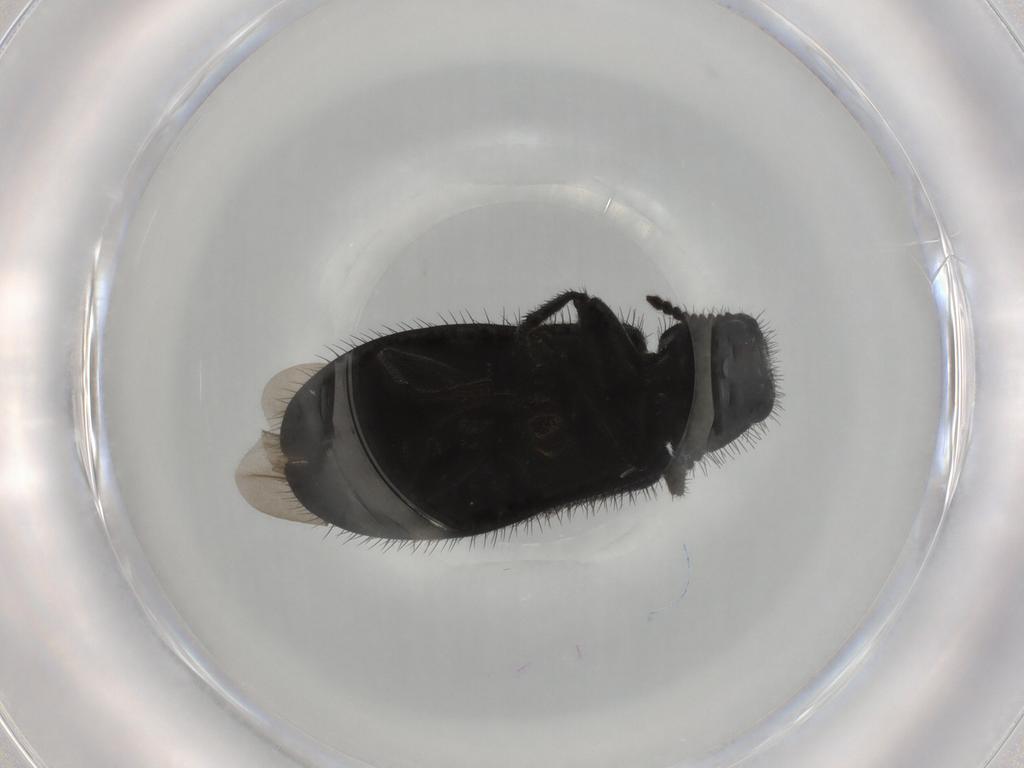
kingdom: Animalia
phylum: Arthropoda
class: Insecta
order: Coleoptera
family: Dasytidae
